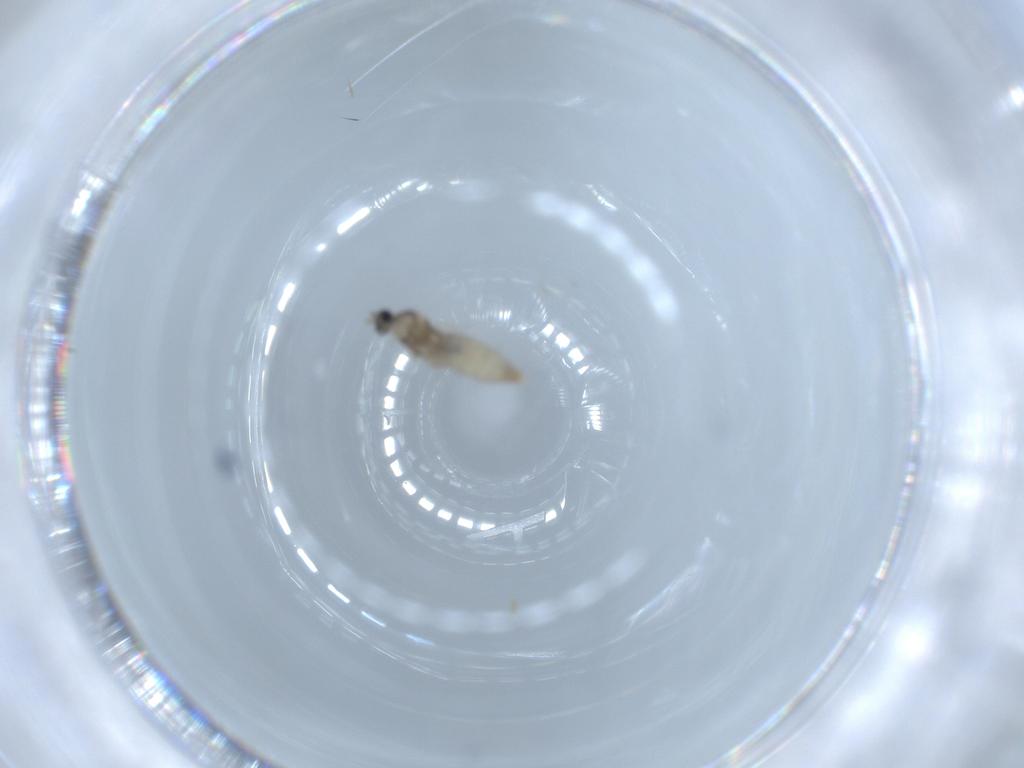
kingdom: Animalia
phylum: Arthropoda
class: Insecta
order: Diptera
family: Cecidomyiidae
